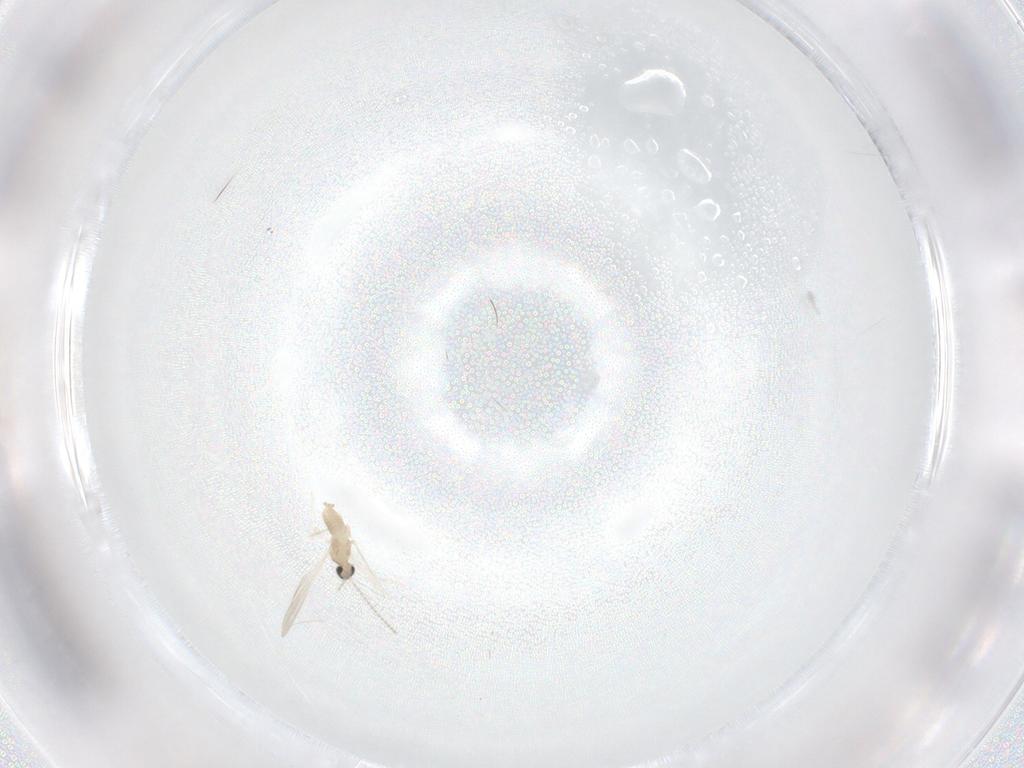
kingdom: Animalia
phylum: Arthropoda
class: Insecta
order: Diptera
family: Cecidomyiidae
